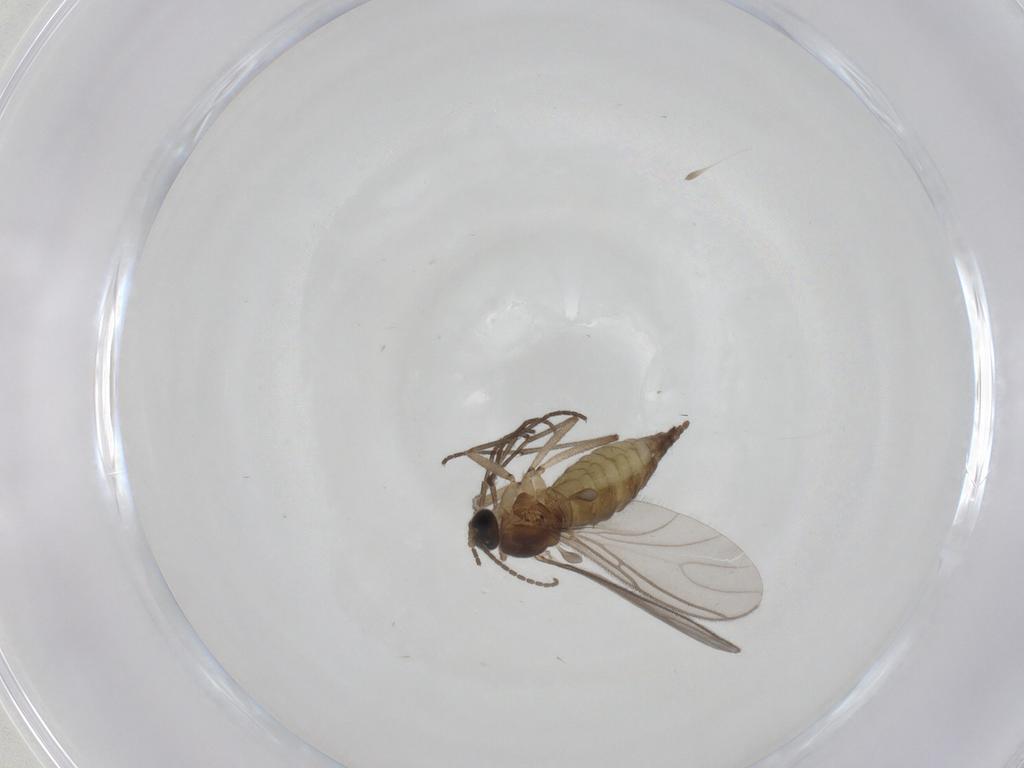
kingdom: Animalia
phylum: Arthropoda
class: Insecta
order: Diptera
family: Sciaridae
